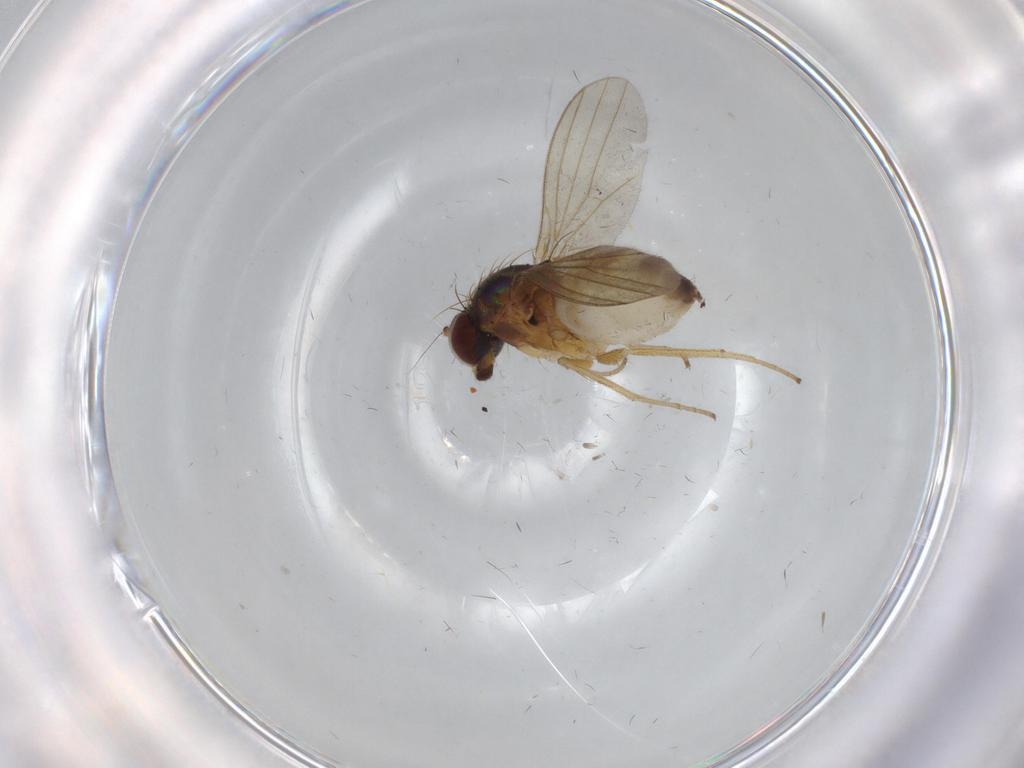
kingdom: Animalia
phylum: Arthropoda
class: Insecta
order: Diptera
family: Dolichopodidae
